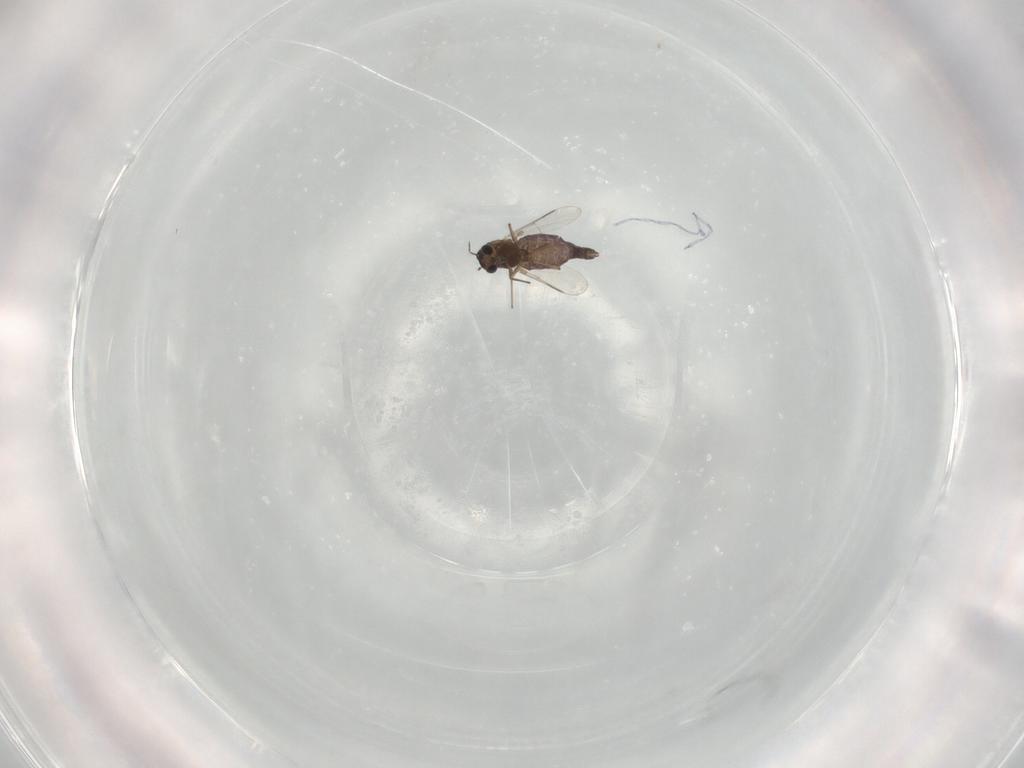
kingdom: Animalia
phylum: Arthropoda
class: Insecta
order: Diptera
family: Chironomidae
